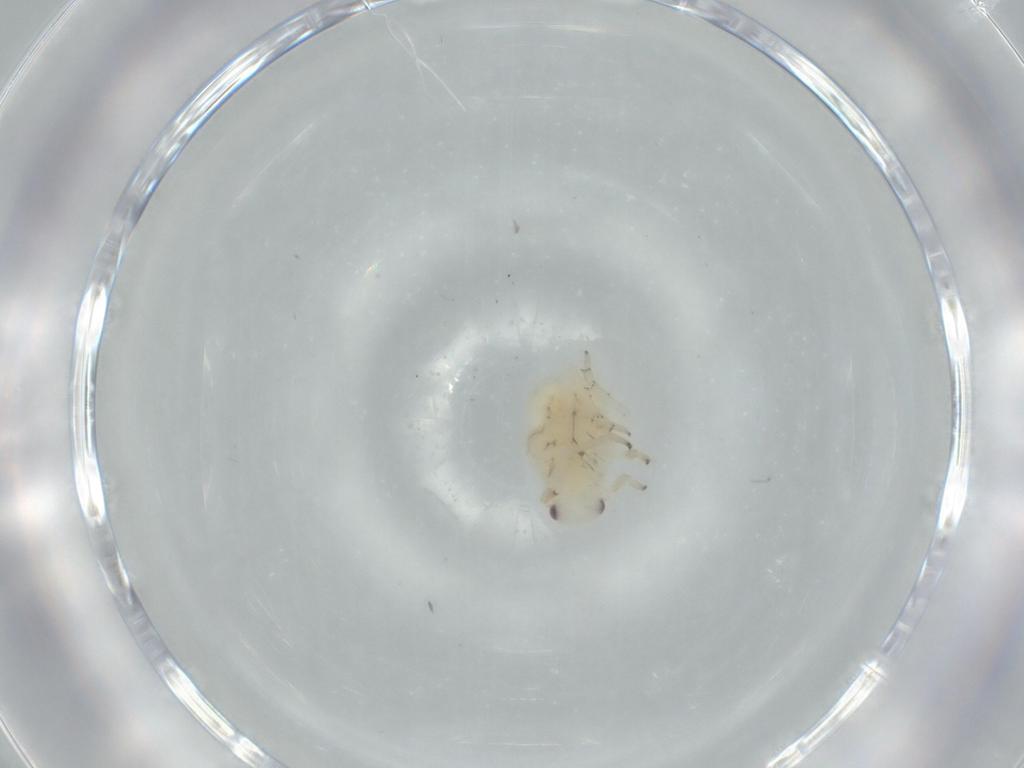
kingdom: Animalia
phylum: Arthropoda
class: Insecta
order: Hemiptera
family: Flatidae
